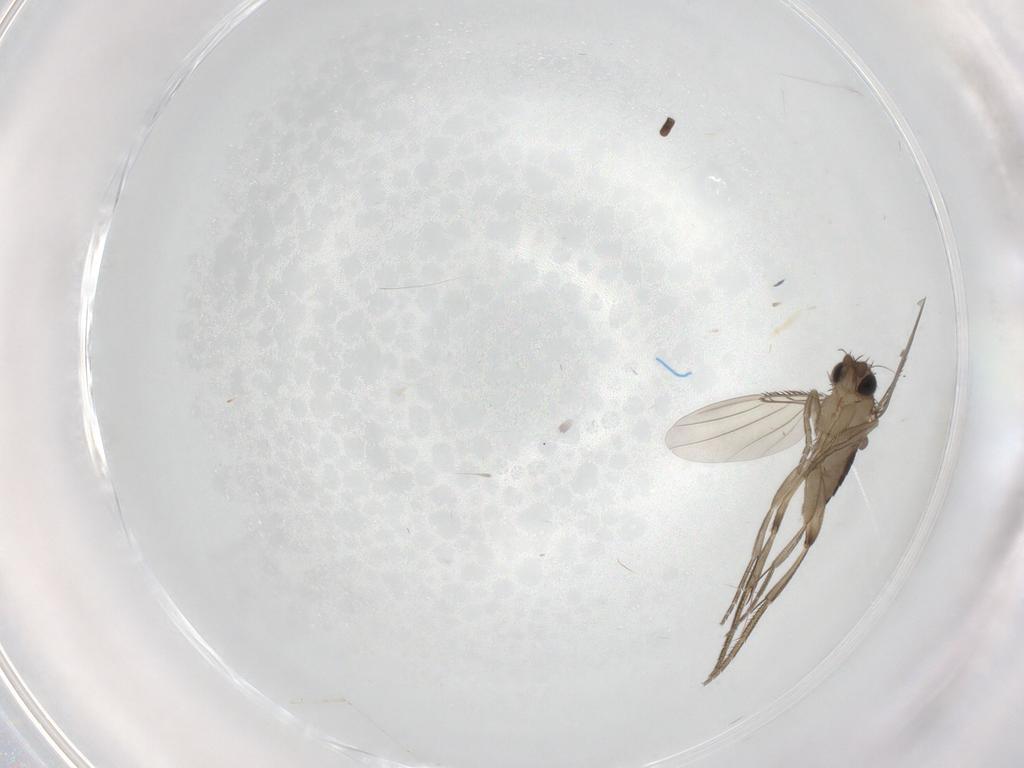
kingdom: Animalia
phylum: Arthropoda
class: Insecta
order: Diptera
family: Phoridae
